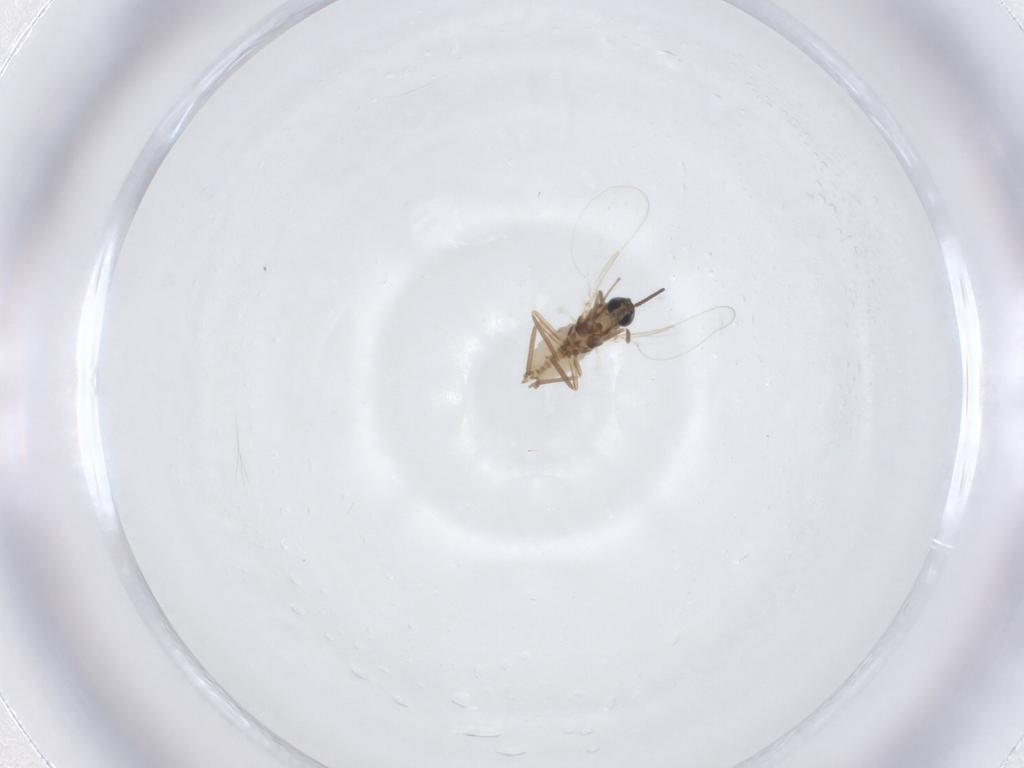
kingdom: Animalia
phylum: Arthropoda
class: Insecta
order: Diptera
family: Cecidomyiidae
